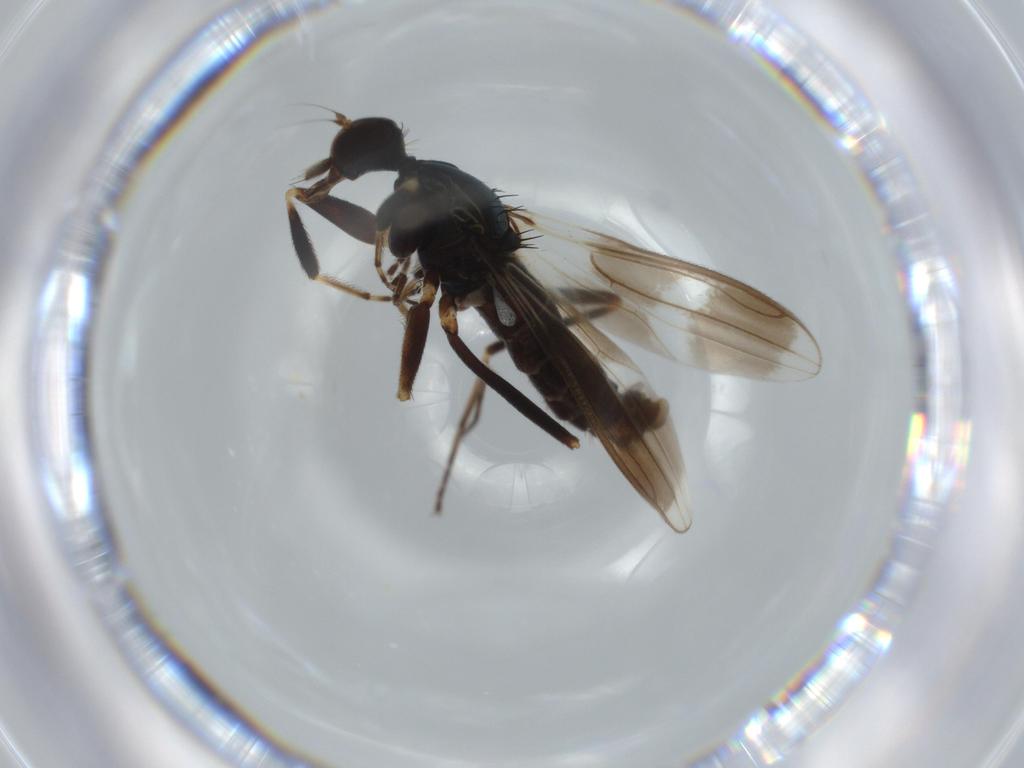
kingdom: Animalia
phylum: Arthropoda
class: Insecta
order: Diptera
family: Hybotidae
